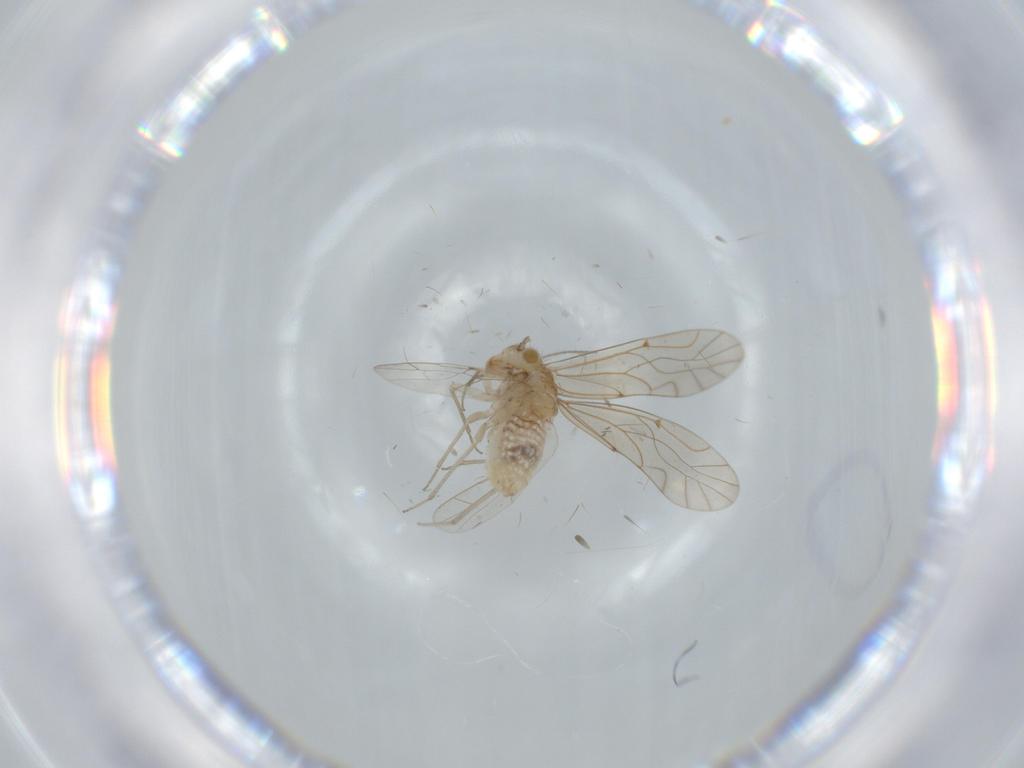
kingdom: Animalia
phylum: Arthropoda
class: Insecta
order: Psocodea
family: Lachesillidae
